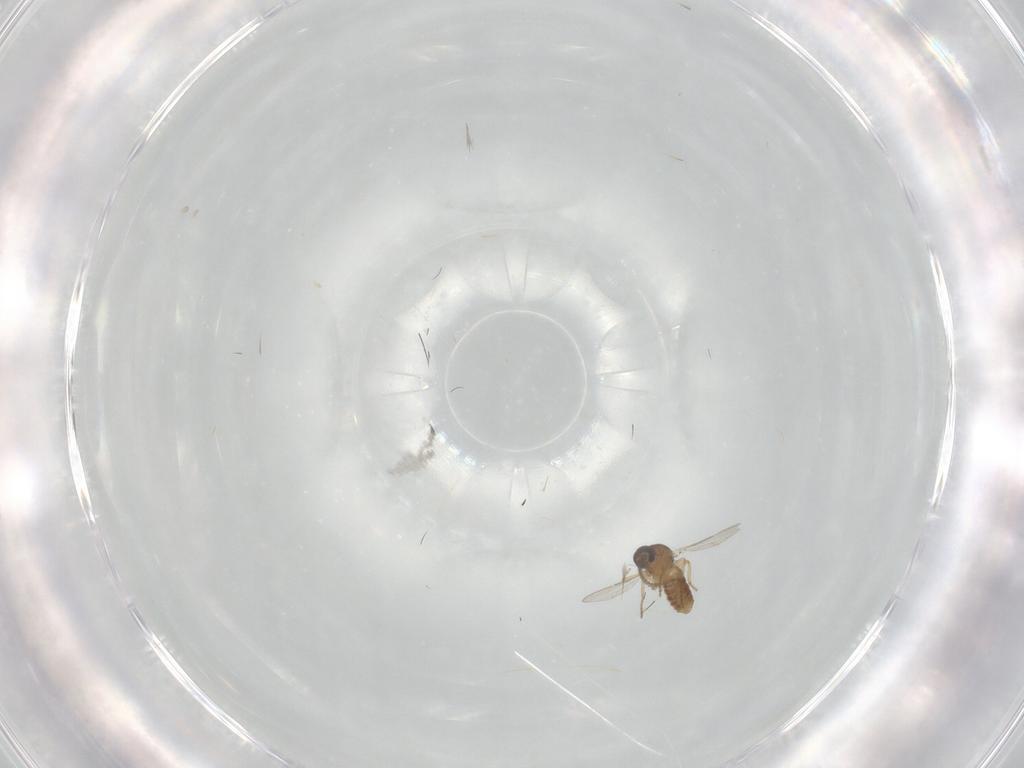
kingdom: Animalia
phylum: Arthropoda
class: Insecta
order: Diptera
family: Ceratopogonidae
